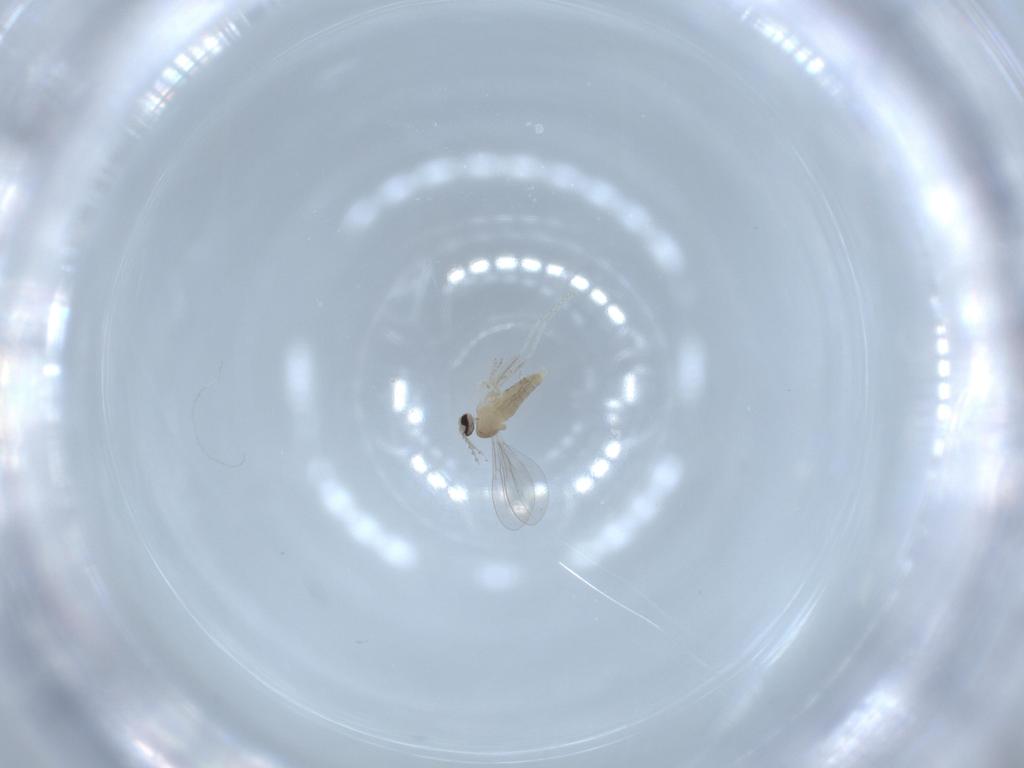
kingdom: Animalia
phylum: Arthropoda
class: Insecta
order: Diptera
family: Cecidomyiidae
